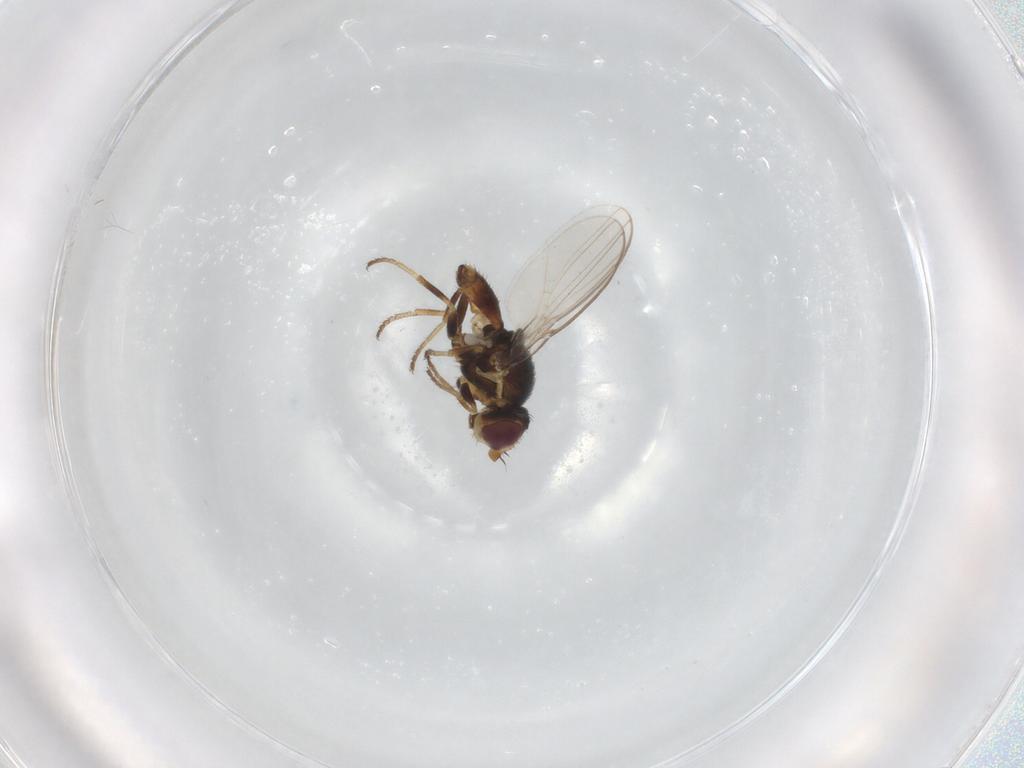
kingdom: Animalia
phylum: Arthropoda
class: Insecta
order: Diptera
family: Chloropidae
